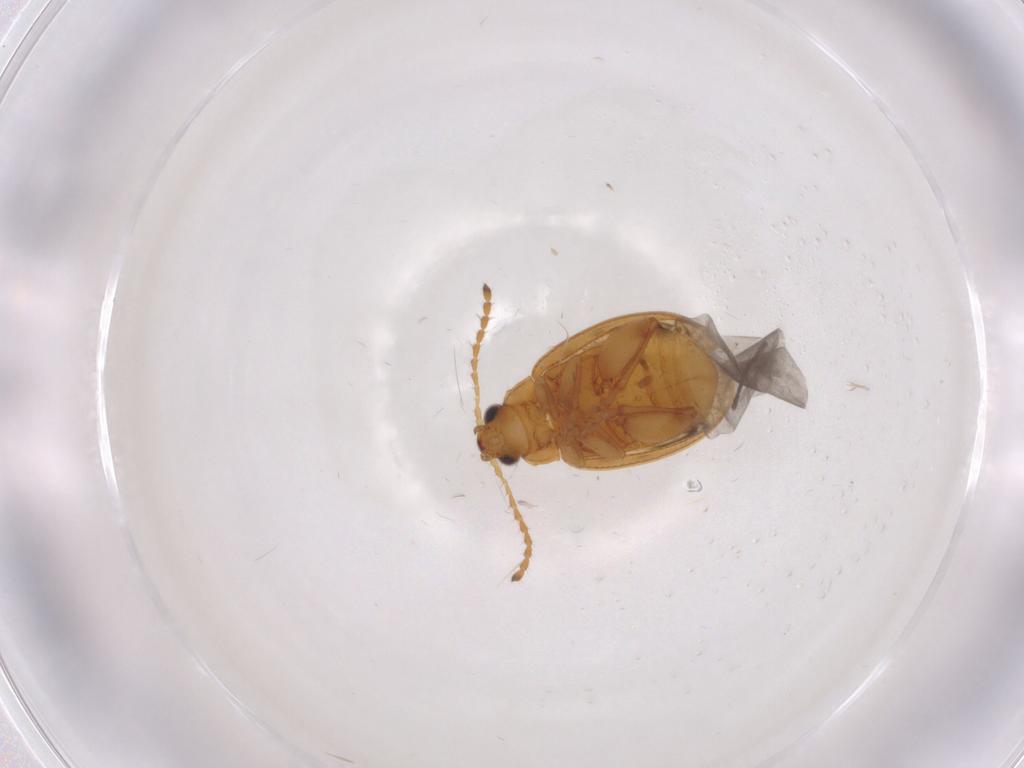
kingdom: Animalia
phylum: Arthropoda
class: Insecta
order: Coleoptera
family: Chrysomelidae
